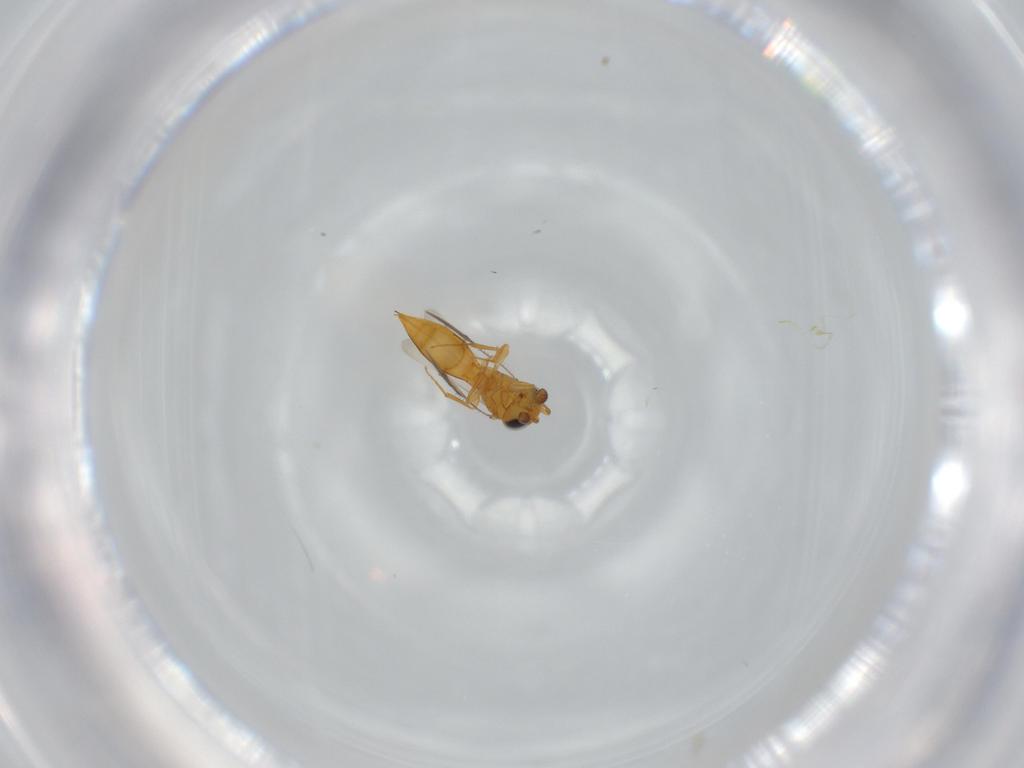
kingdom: Animalia
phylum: Arthropoda
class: Insecta
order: Hymenoptera
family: Scelionidae
